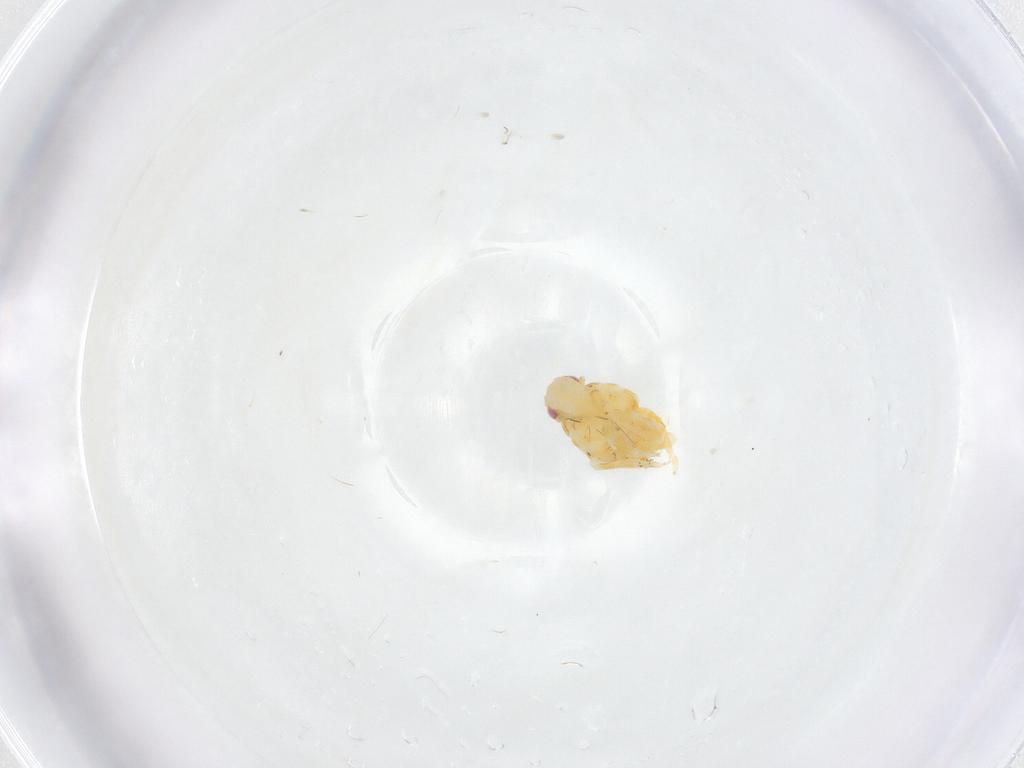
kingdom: Animalia
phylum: Arthropoda
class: Insecta
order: Hemiptera
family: Fulgoroidea_incertae_sedis
